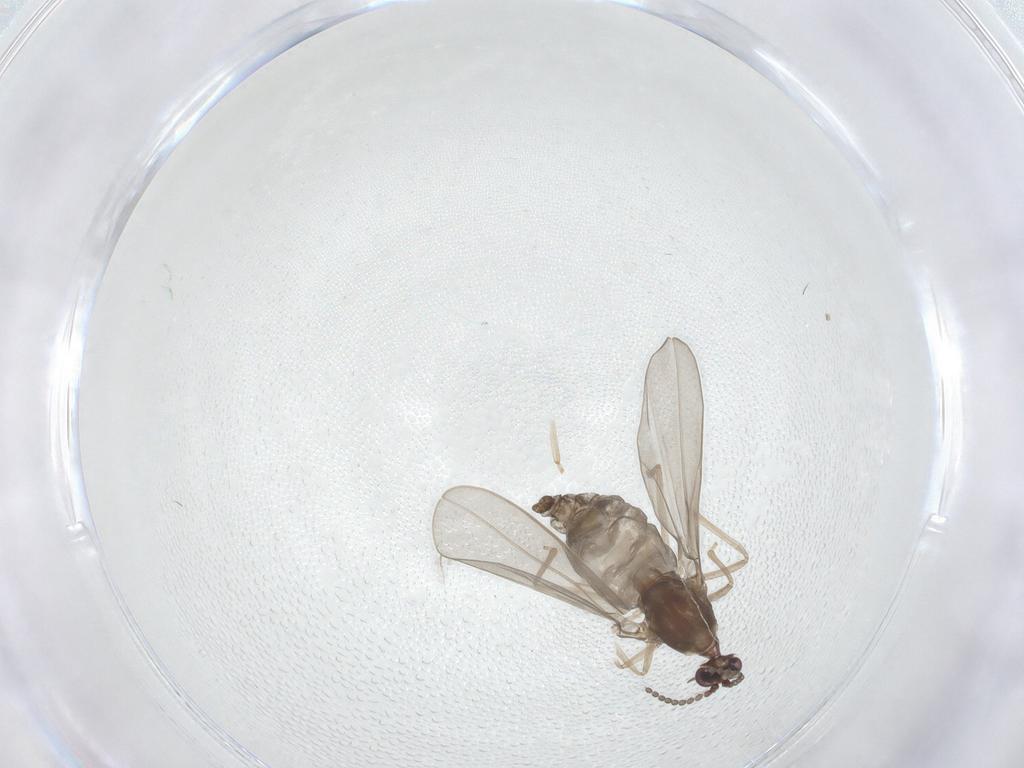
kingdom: Animalia
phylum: Arthropoda
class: Insecta
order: Diptera
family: Cecidomyiidae
